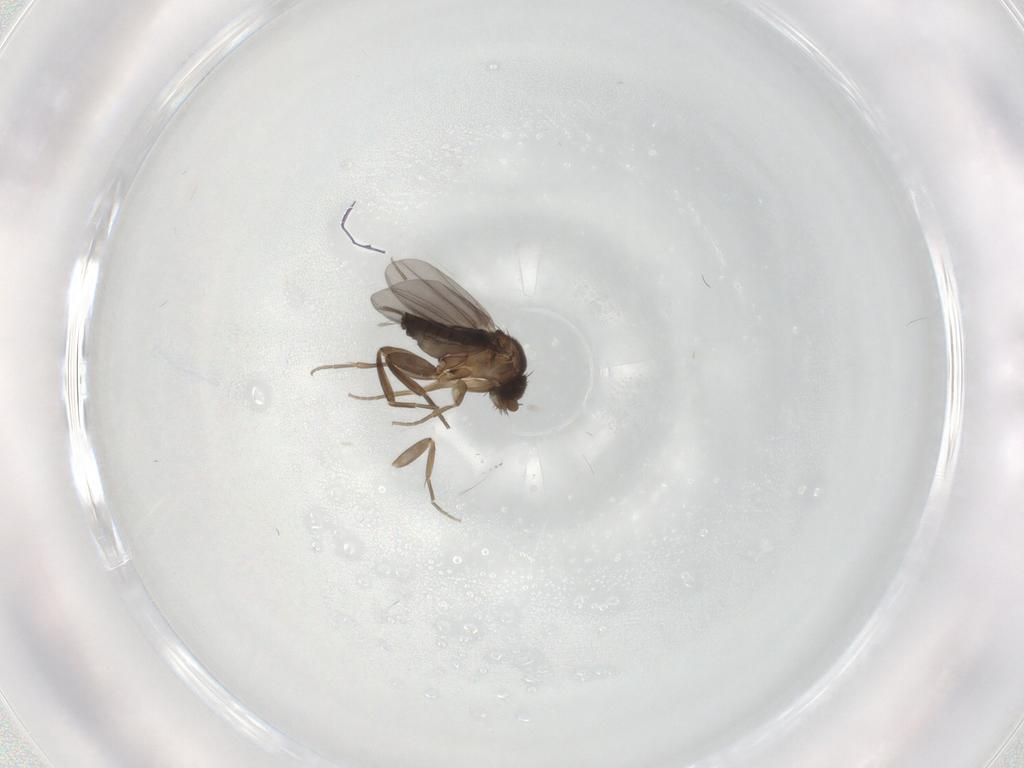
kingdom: Animalia
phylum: Arthropoda
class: Insecta
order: Diptera
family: Phoridae
